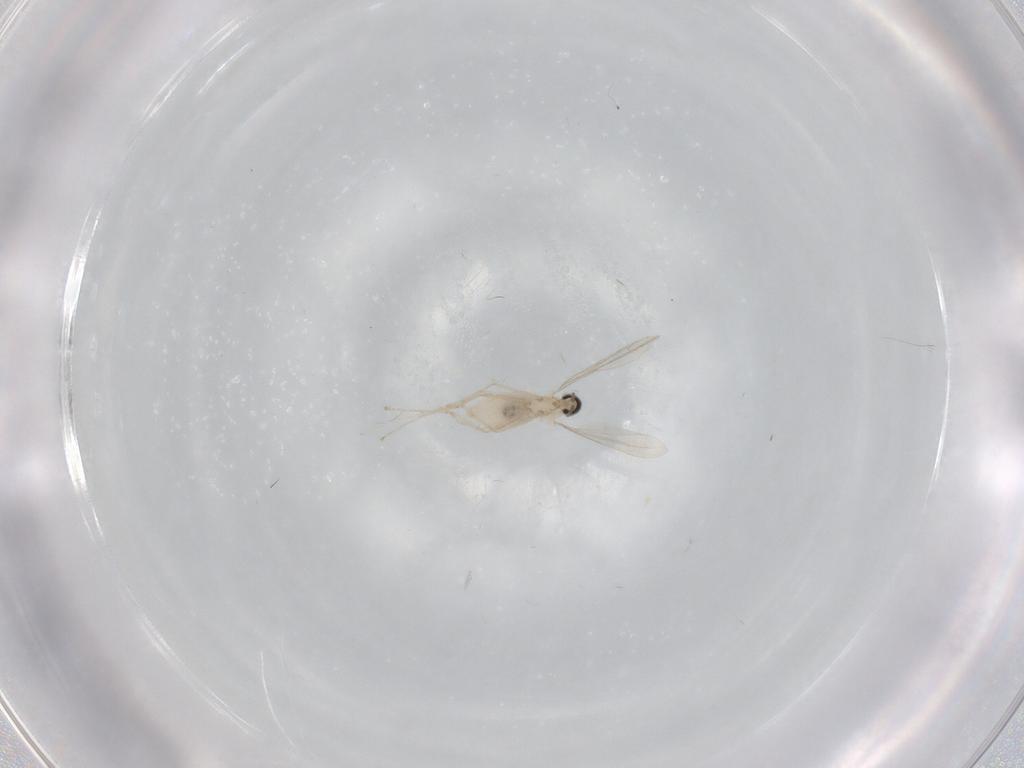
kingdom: Animalia
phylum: Arthropoda
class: Insecta
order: Diptera
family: Cecidomyiidae
